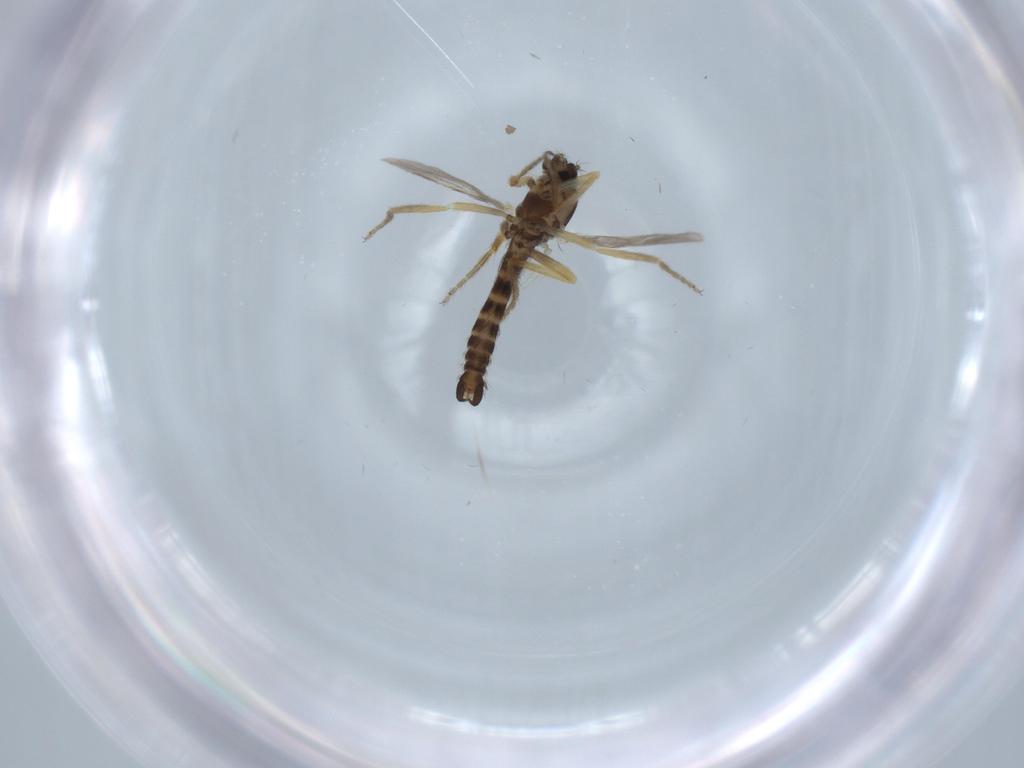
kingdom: Animalia
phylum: Arthropoda
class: Insecta
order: Diptera
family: Ceratopogonidae
